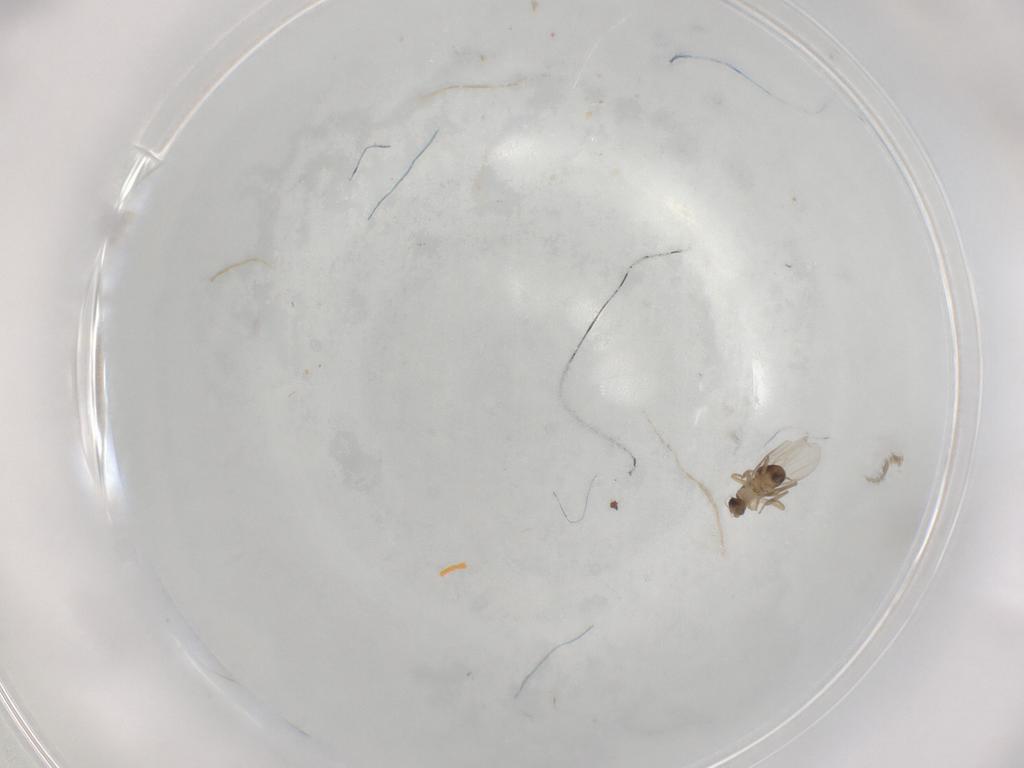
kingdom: Animalia
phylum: Arthropoda
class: Insecta
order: Diptera
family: Phoridae
